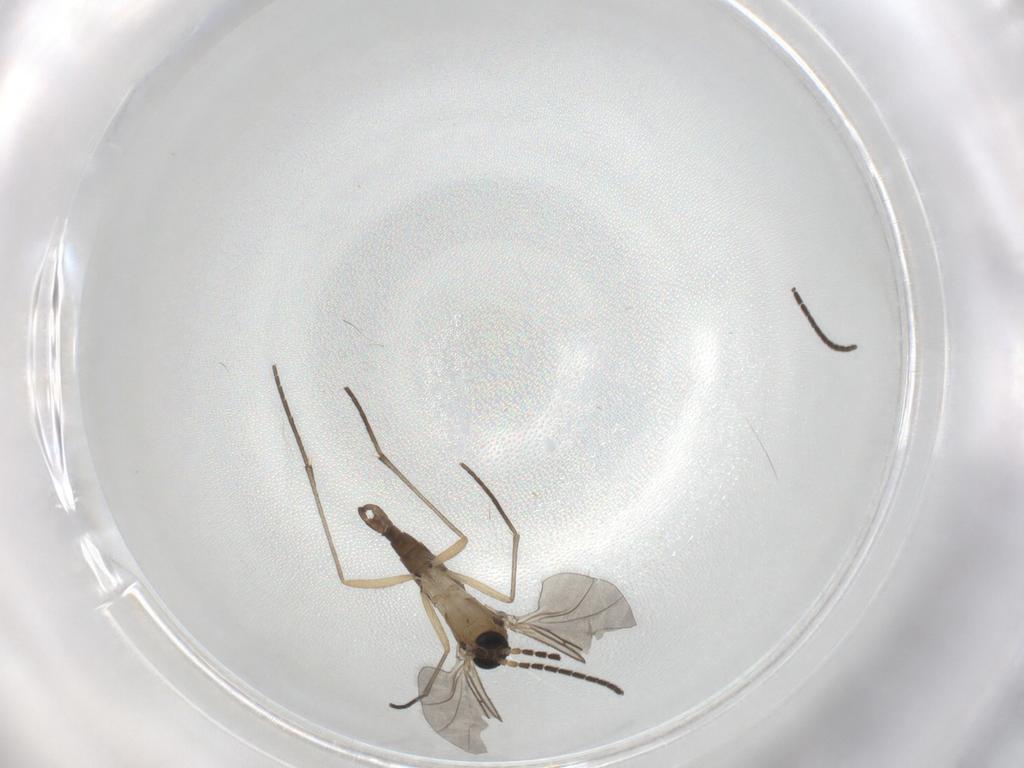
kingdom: Animalia
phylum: Arthropoda
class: Insecta
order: Diptera
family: Sciaridae
